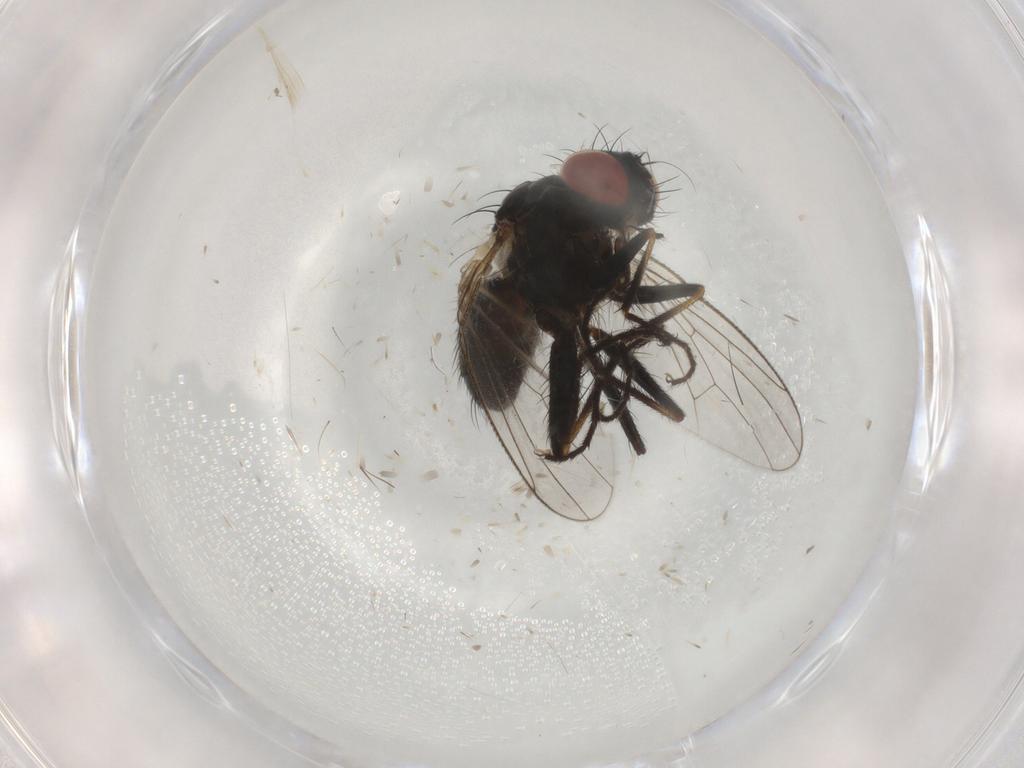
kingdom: Animalia
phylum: Arthropoda
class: Insecta
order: Diptera
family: Muscidae
